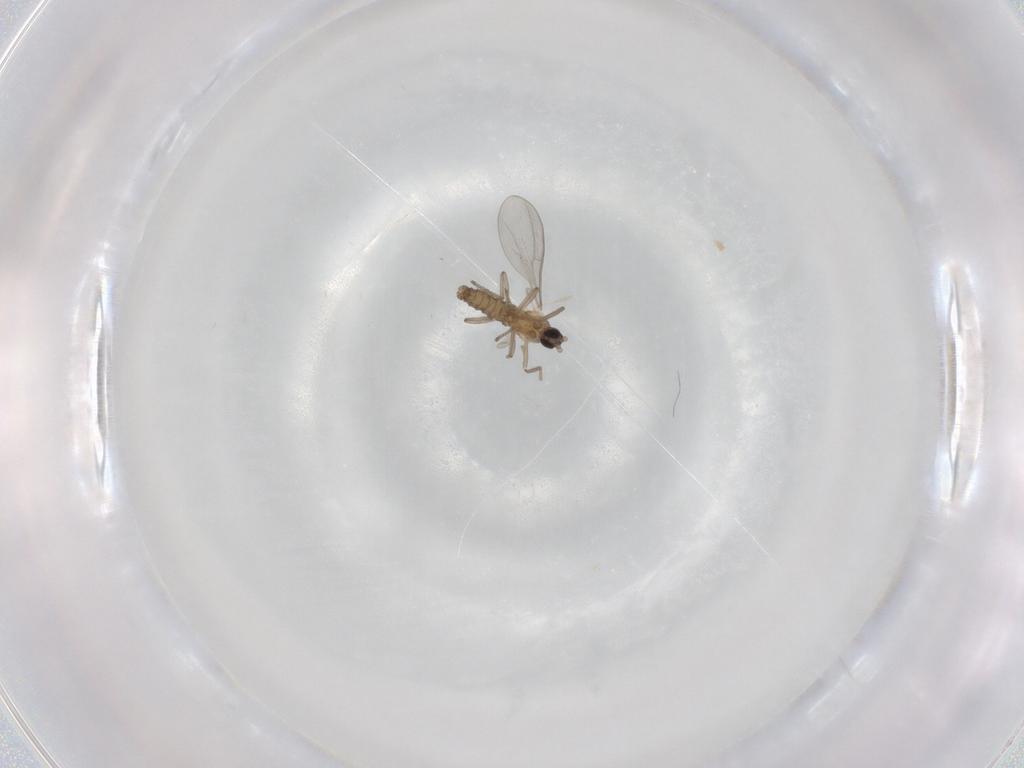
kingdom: Animalia
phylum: Arthropoda
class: Insecta
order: Diptera
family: Cecidomyiidae
